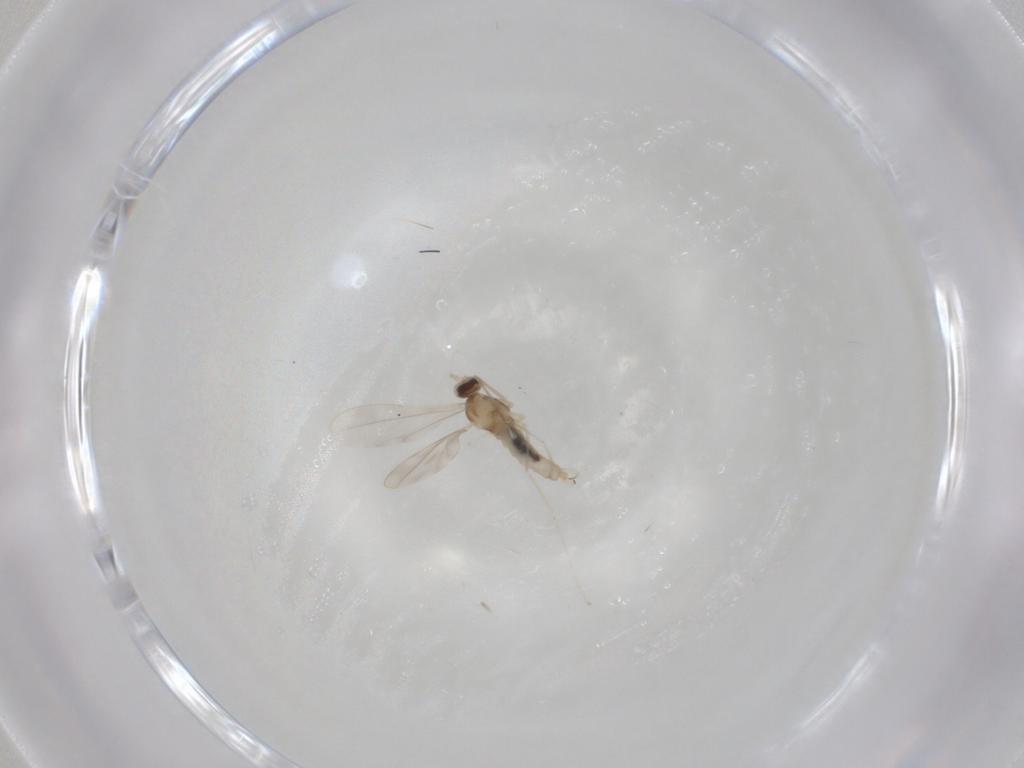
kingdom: Animalia
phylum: Arthropoda
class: Insecta
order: Diptera
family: Cecidomyiidae
